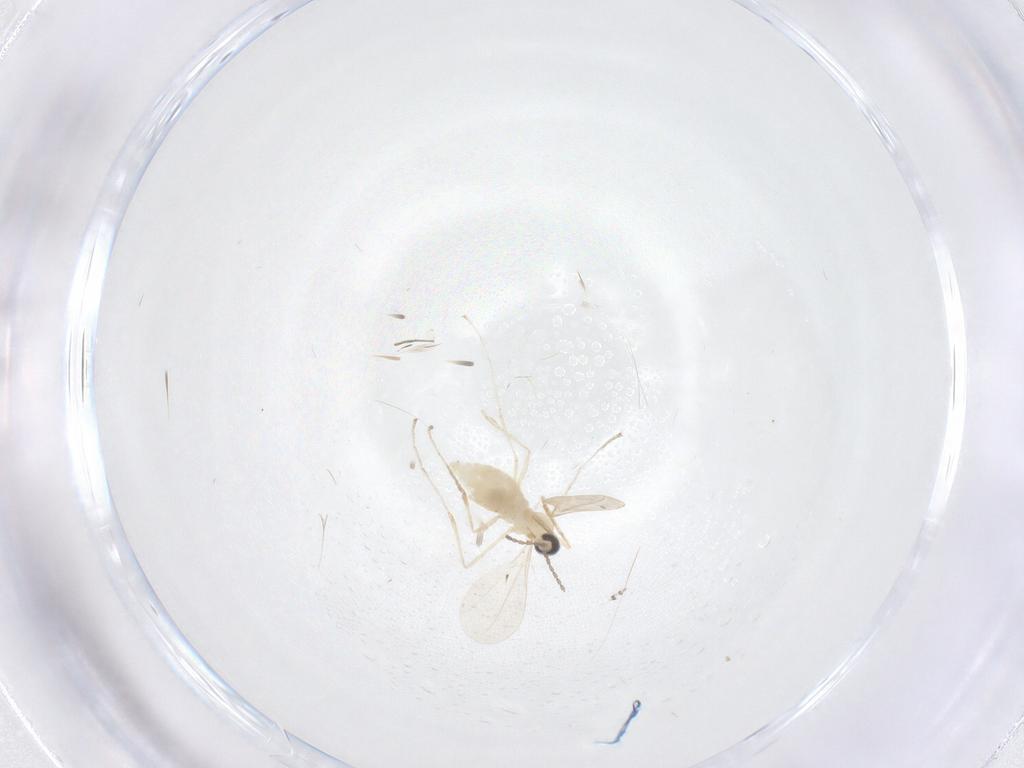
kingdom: Animalia
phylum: Arthropoda
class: Insecta
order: Diptera
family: Cecidomyiidae
